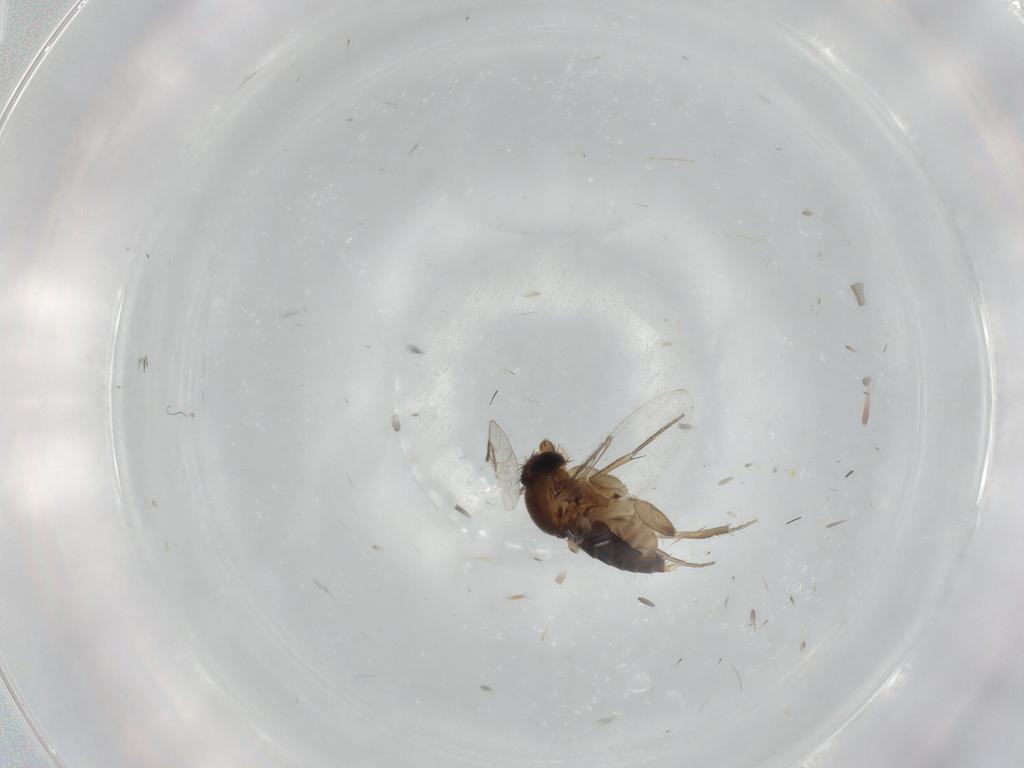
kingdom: Animalia
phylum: Arthropoda
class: Insecta
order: Diptera
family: Phoridae
